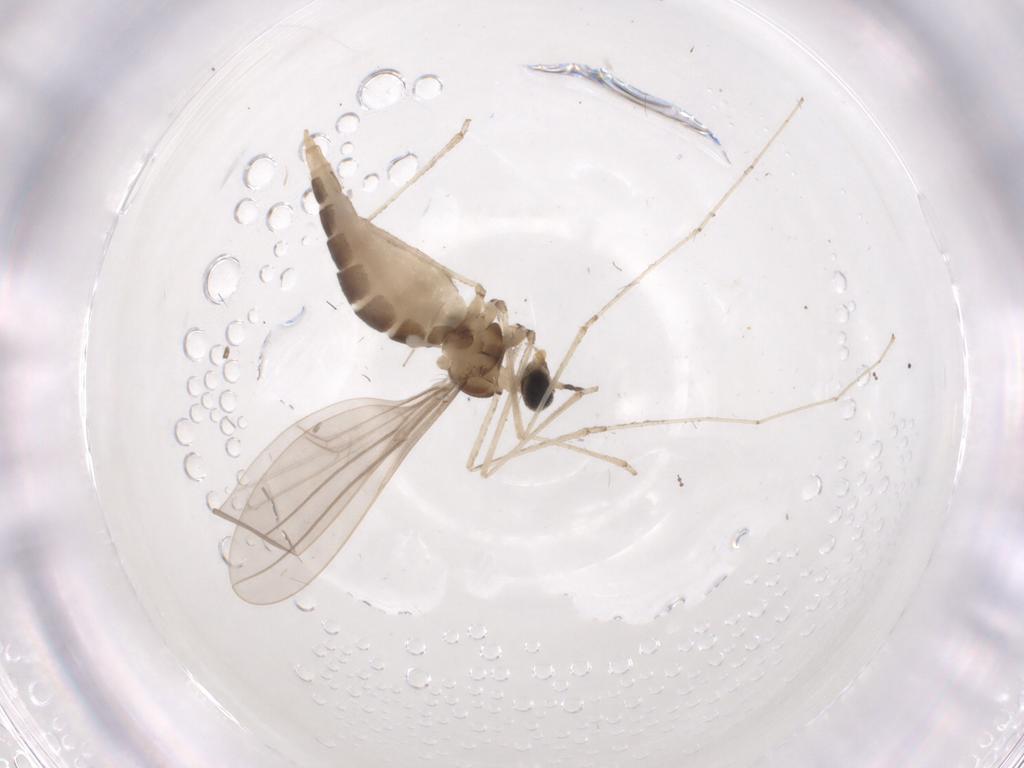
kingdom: Animalia
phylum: Arthropoda
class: Insecta
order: Diptera
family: Cecidomyiidae
